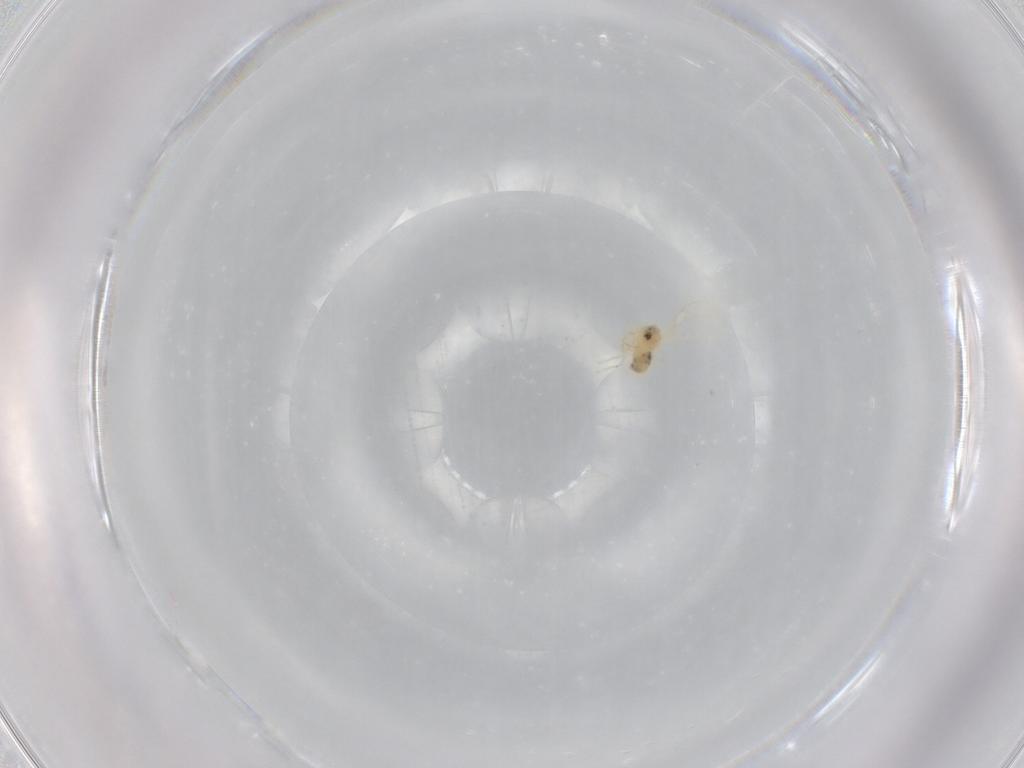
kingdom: Animalia
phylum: Arthropoda
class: Insecta
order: Hemiptera
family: Aleyrodidae
